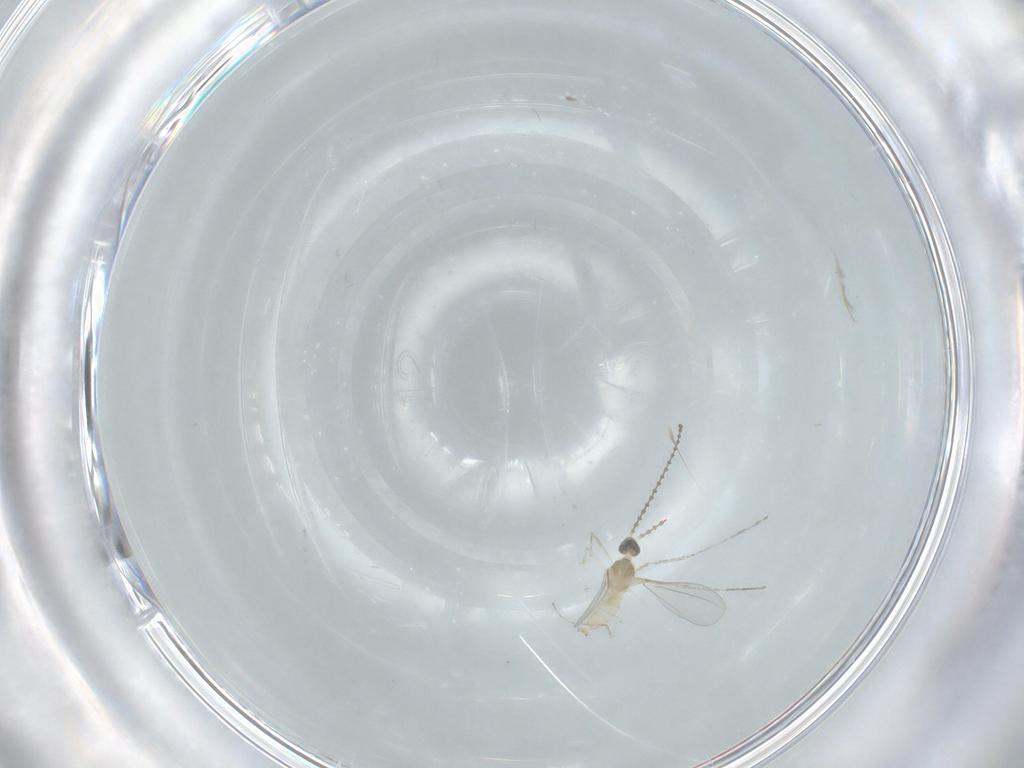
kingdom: Animalia
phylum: Arthropoda
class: Insecta
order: Diptera
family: Cecidomyiidae
